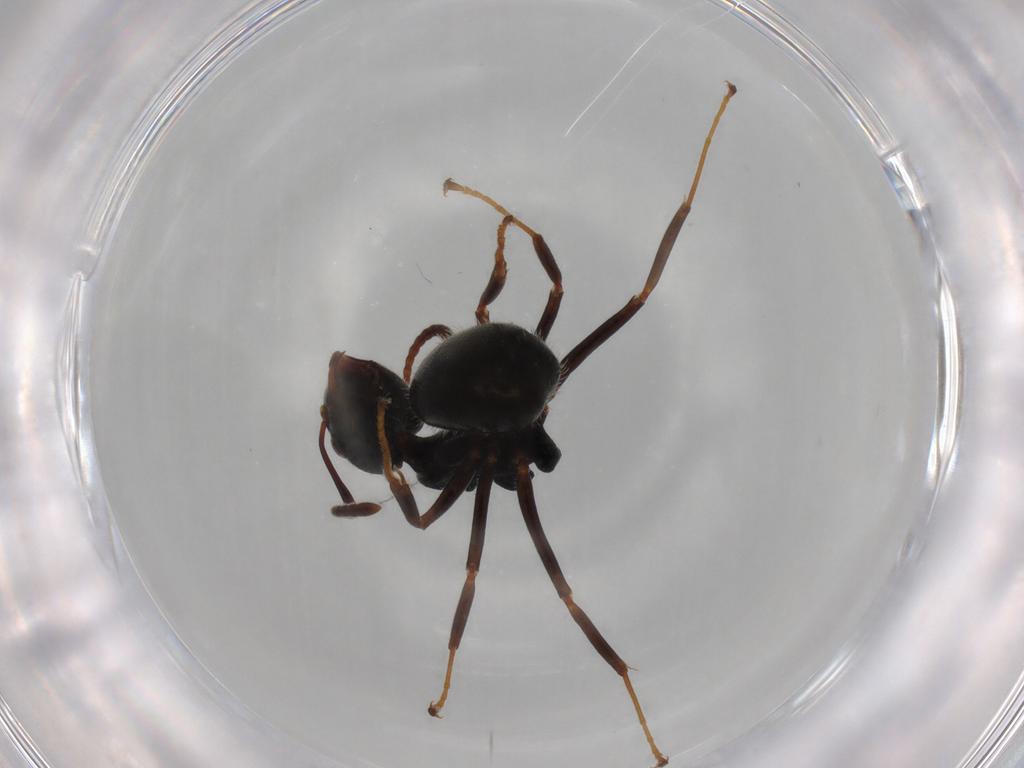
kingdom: Animalia
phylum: Arthropoda
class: Insecta
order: Hymenoptera
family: Formicidae
